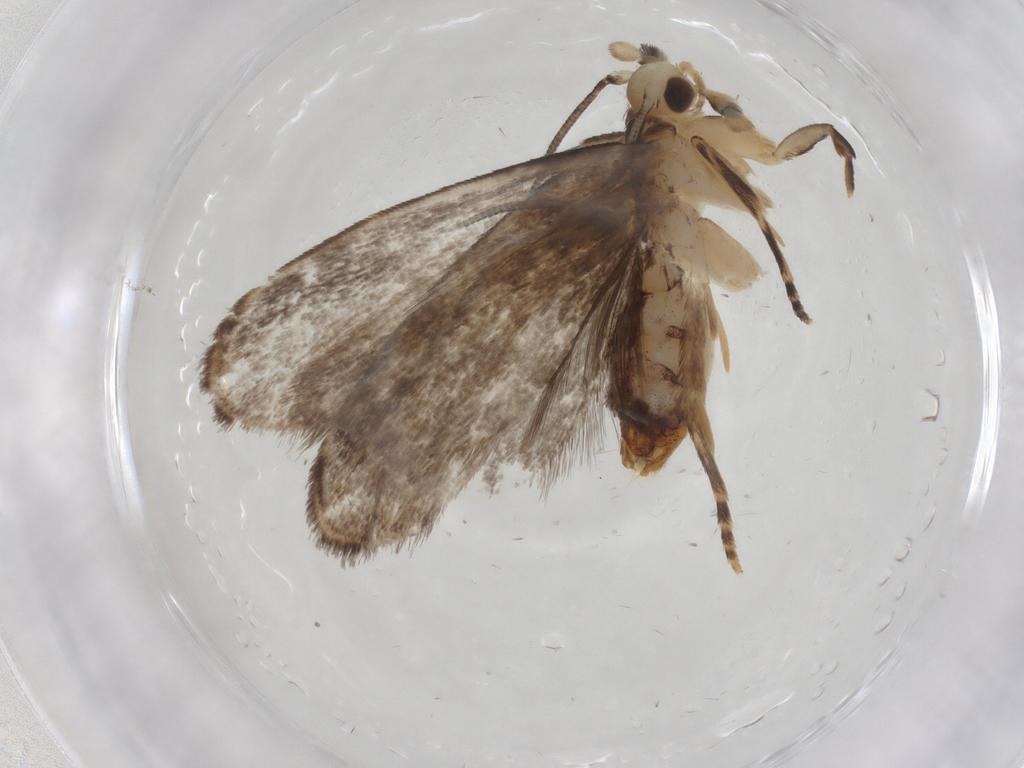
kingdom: Animalia
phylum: Arthropoda
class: Insecta
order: Lepidoptera
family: Dryadaulidae
